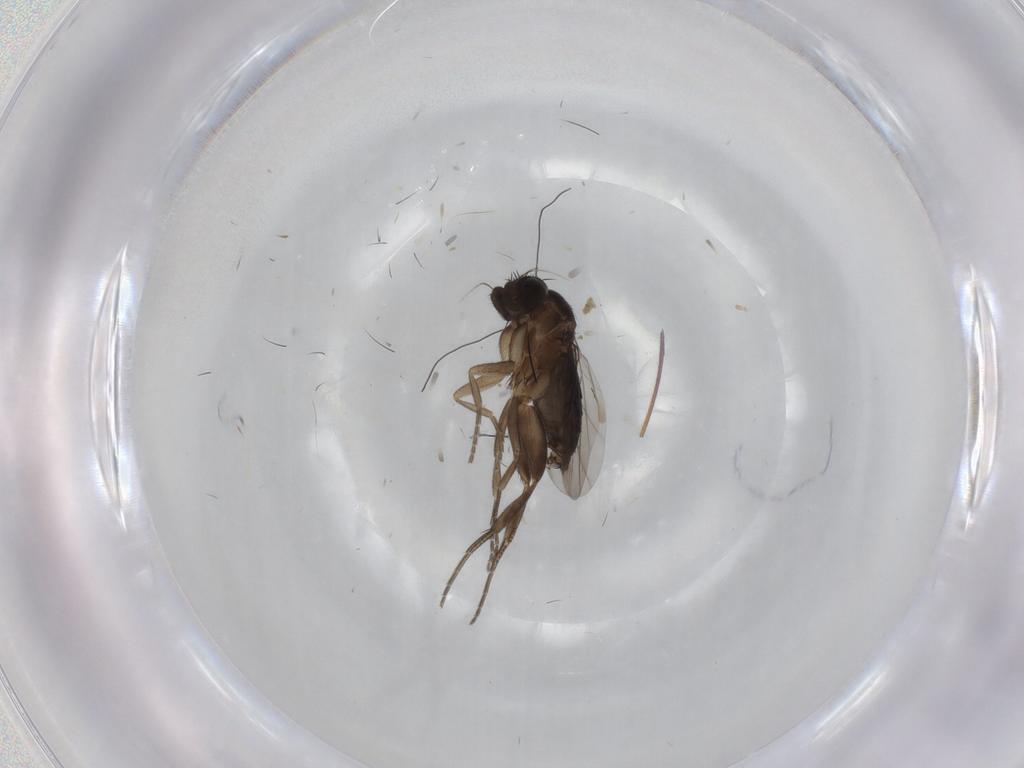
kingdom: Animalia
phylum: Arthropoda
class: Insecta
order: Diptera
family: Phoridae
